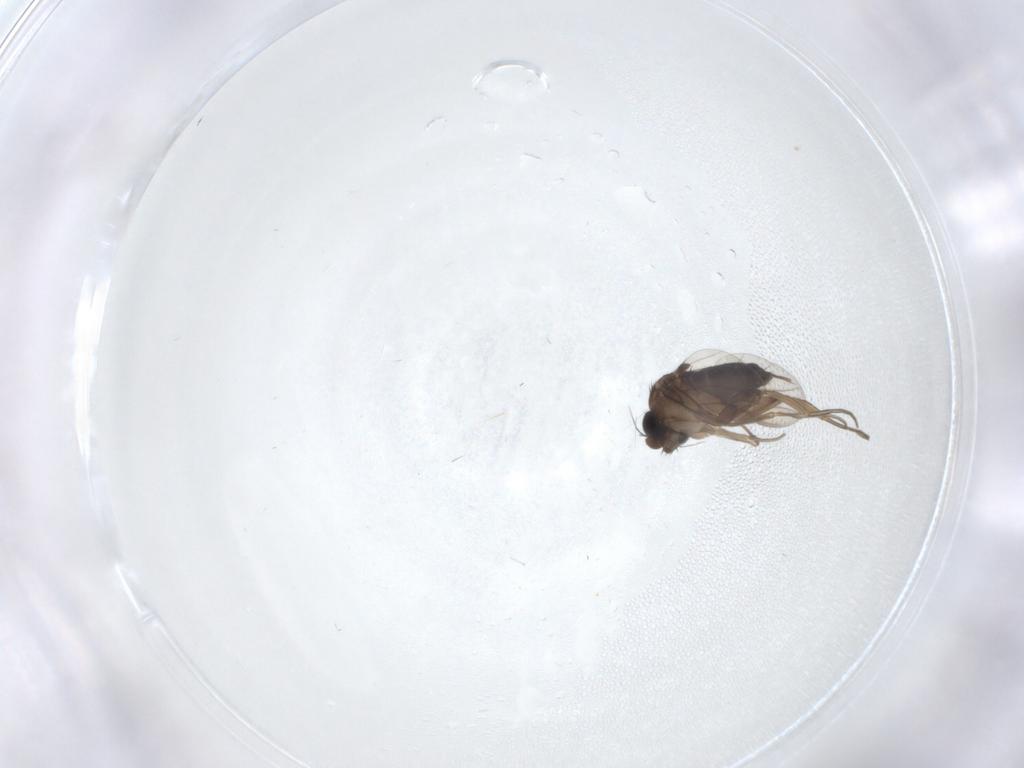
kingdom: Animalia
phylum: Arthropoda
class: Insecta
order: Diptera
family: Phoridae
